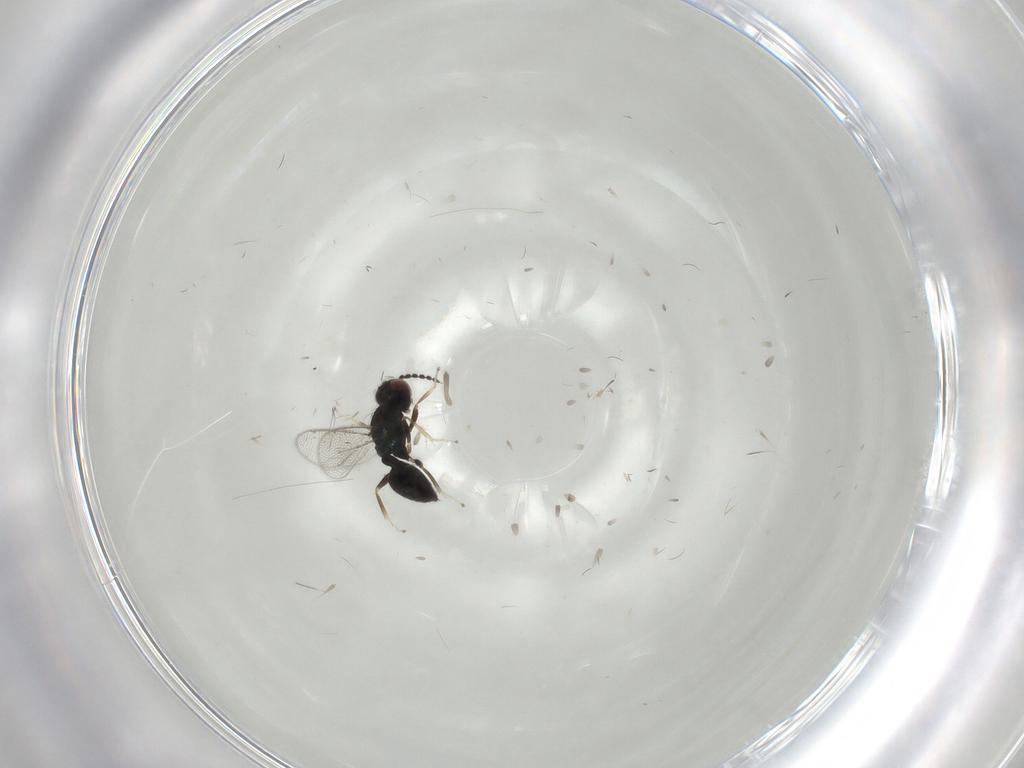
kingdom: Animalia
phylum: Arthropoda
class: Insecta
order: Hymenoptera
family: Eulophidae
